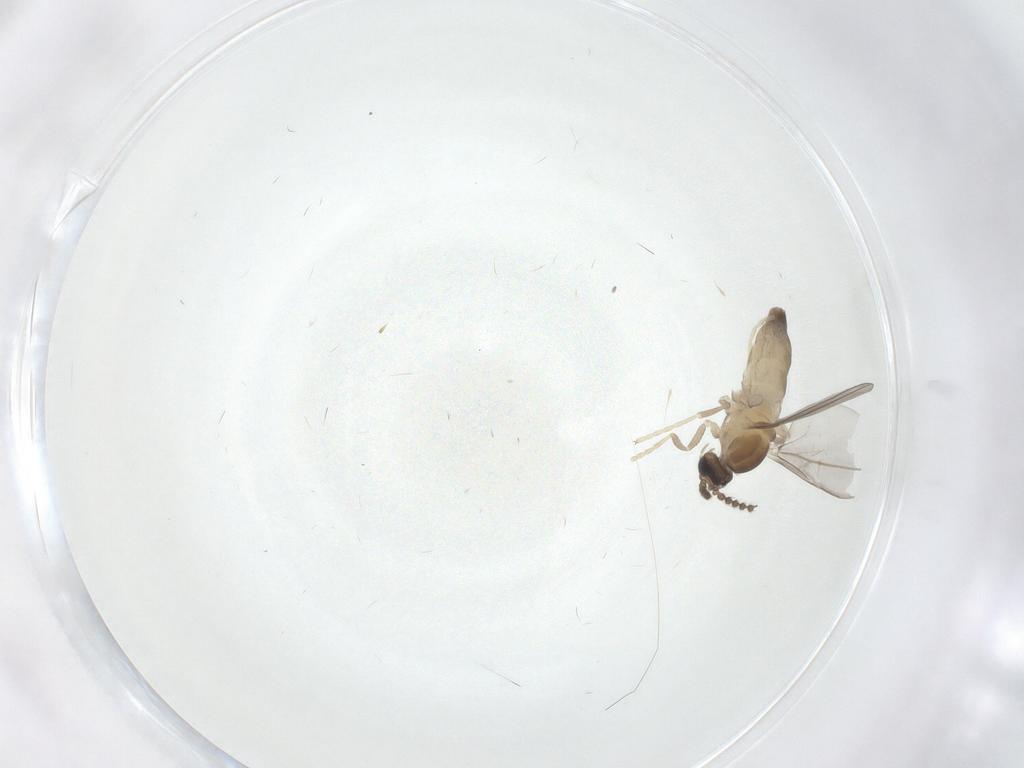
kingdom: Animalia
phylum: Arthropoda
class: Insecta
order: Diptera
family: Cecidomyiidae
